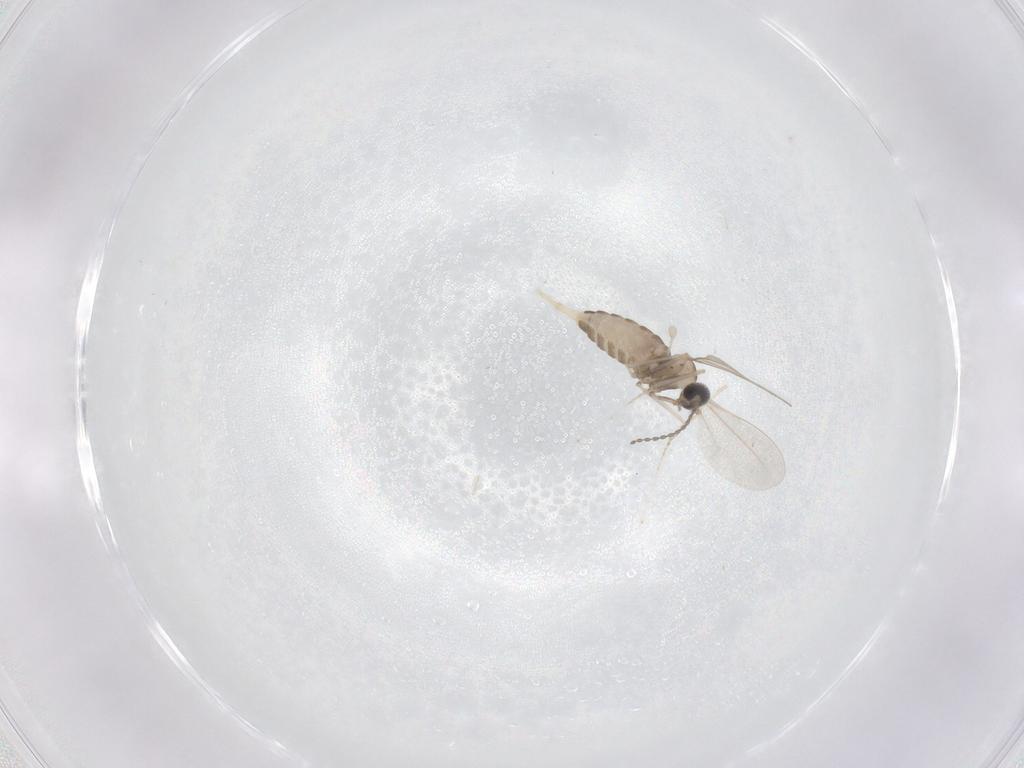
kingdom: Animalia
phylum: Arthropoda
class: Insecta
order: Diptera
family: Cecidomyiidae
